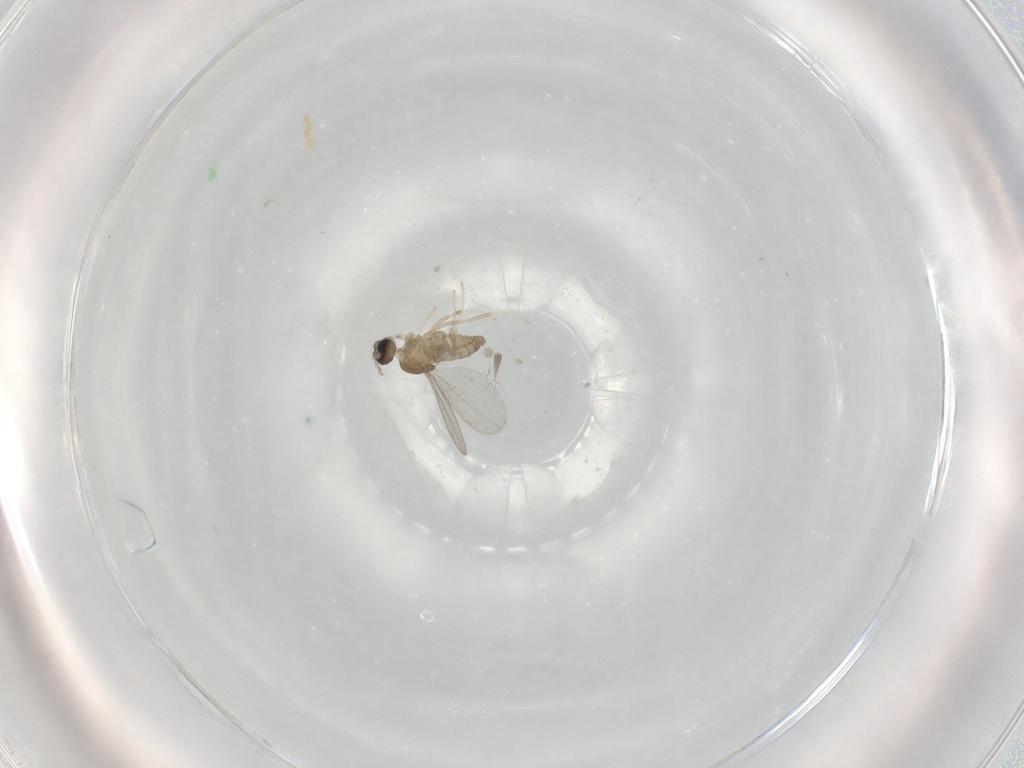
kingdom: Animalia
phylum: Arthropoda
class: Insecta
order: Diptera
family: Cecidomyiidae
